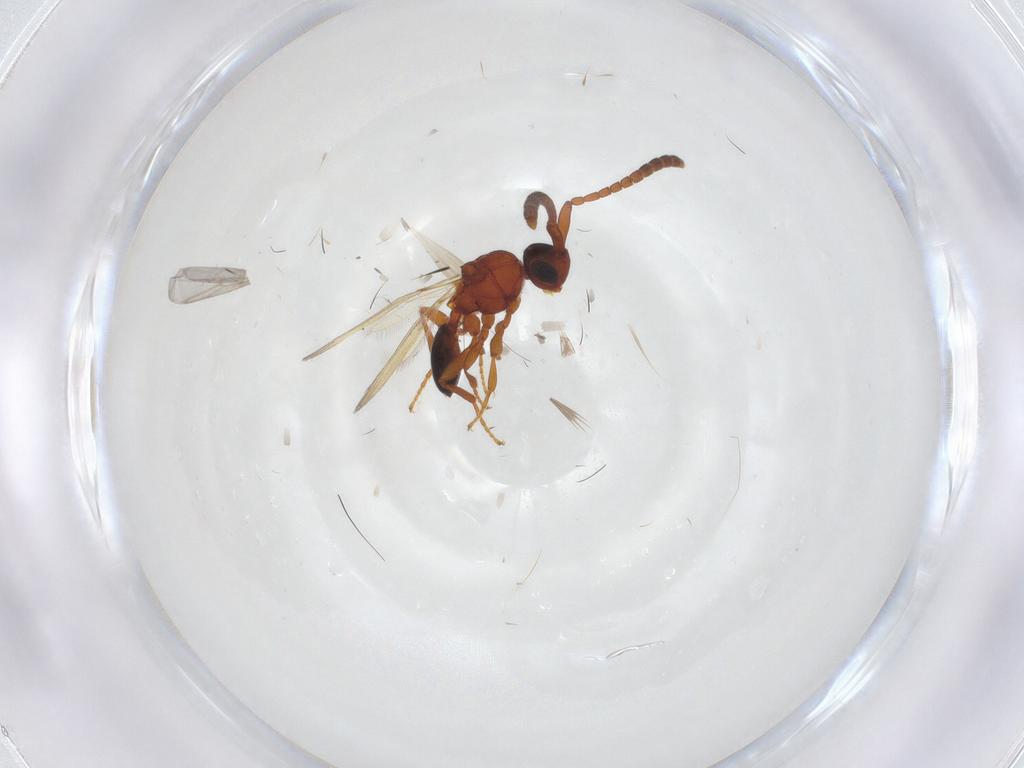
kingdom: Animalia
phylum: Arthropoda
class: Insecta
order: Hymenoptera
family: Diapriidae
